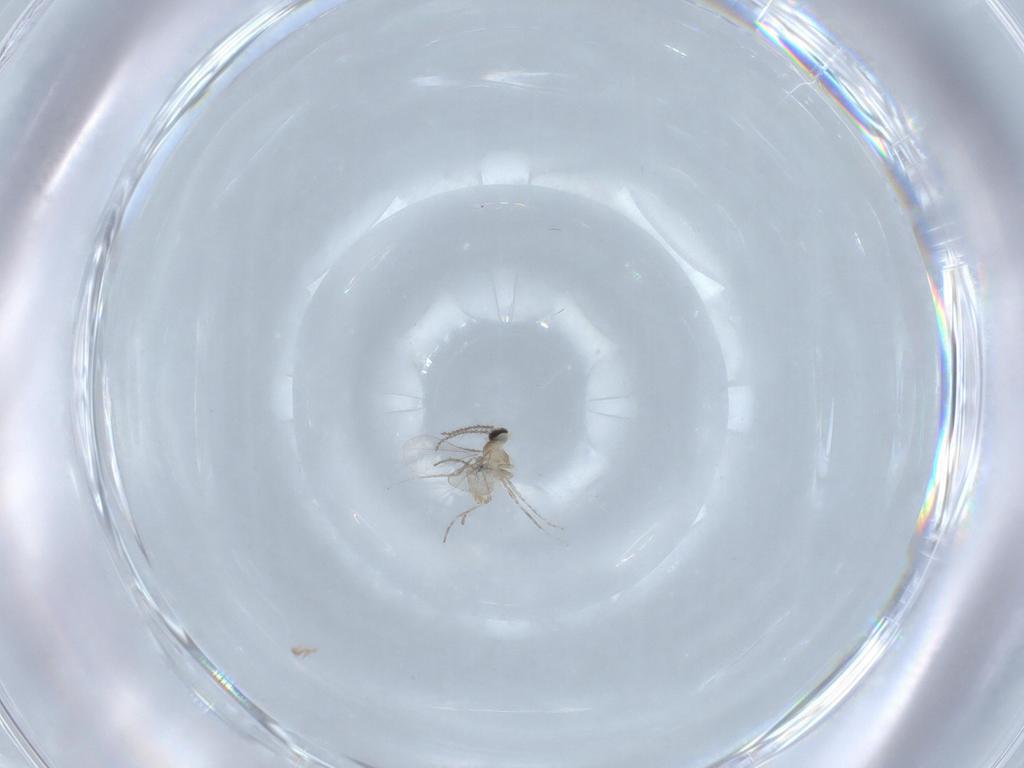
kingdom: Animalia
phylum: Arthropoda
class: Insecta
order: Diptera
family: Cecidomyiidae
